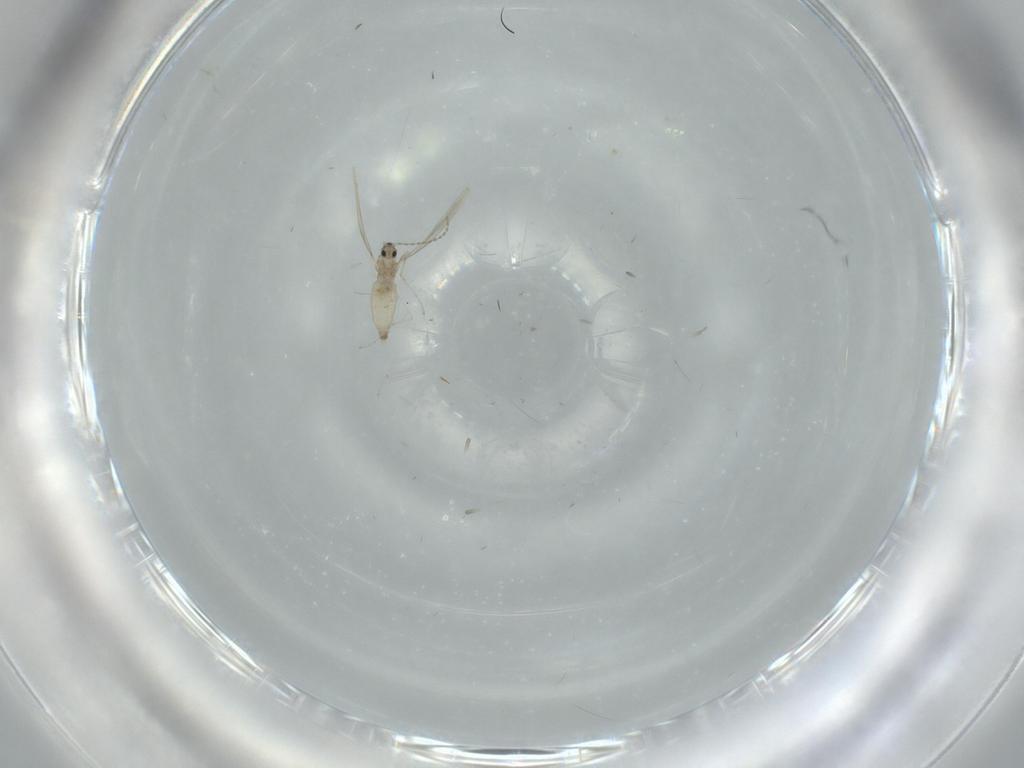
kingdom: Animalia
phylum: Arthropoda
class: Insecta
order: Diptera
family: Cecidomyiidae
